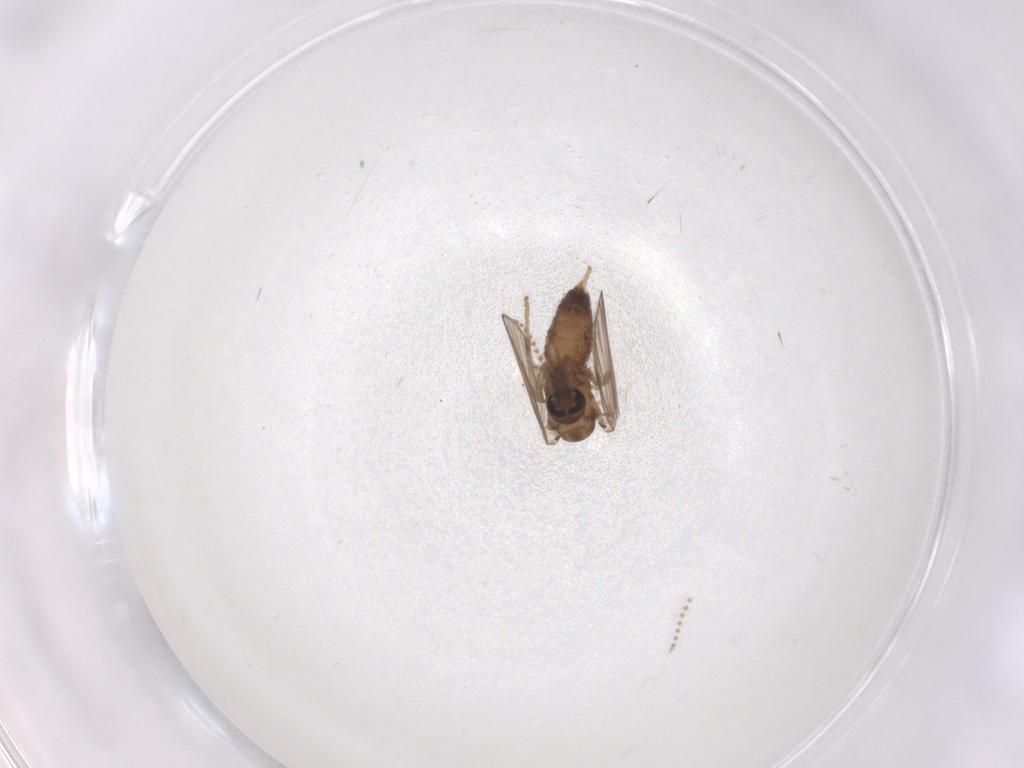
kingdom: Animalia
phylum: Arthropoda
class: Insecta
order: Diptera
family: Psychodidae
